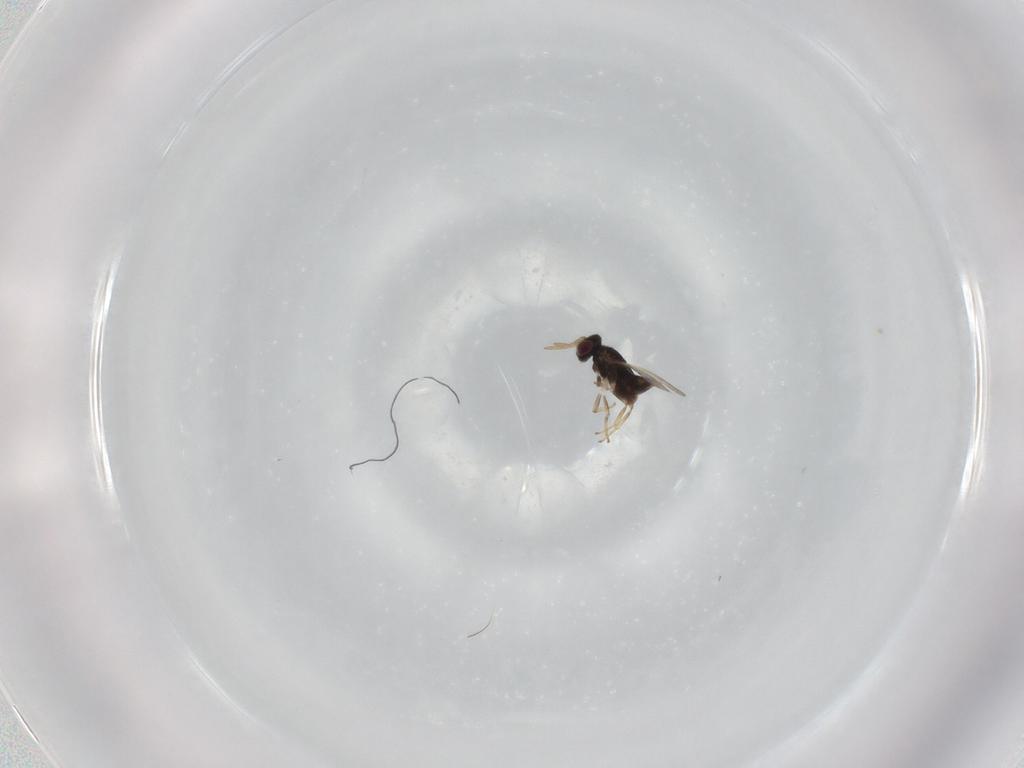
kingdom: Animalia
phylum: Arthropoda
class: Insecta
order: Hymenoptera
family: Aphelinidae
